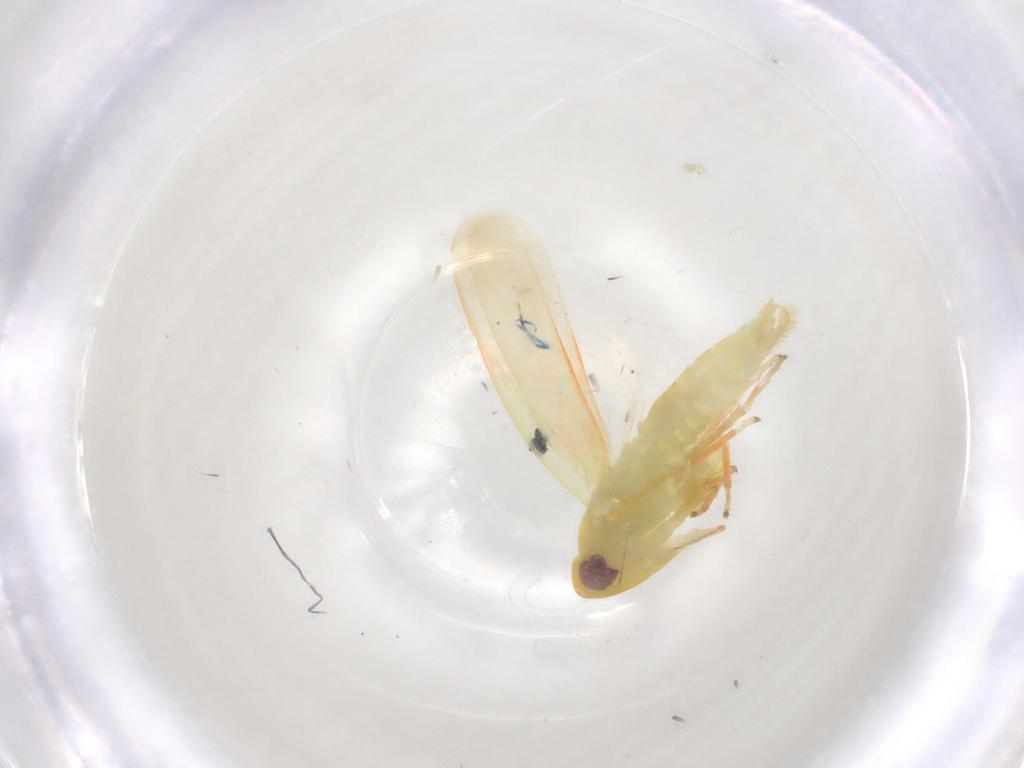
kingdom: Animalia
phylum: Arthropoda
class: Insecta
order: Hemiptera
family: Cicadellidae
